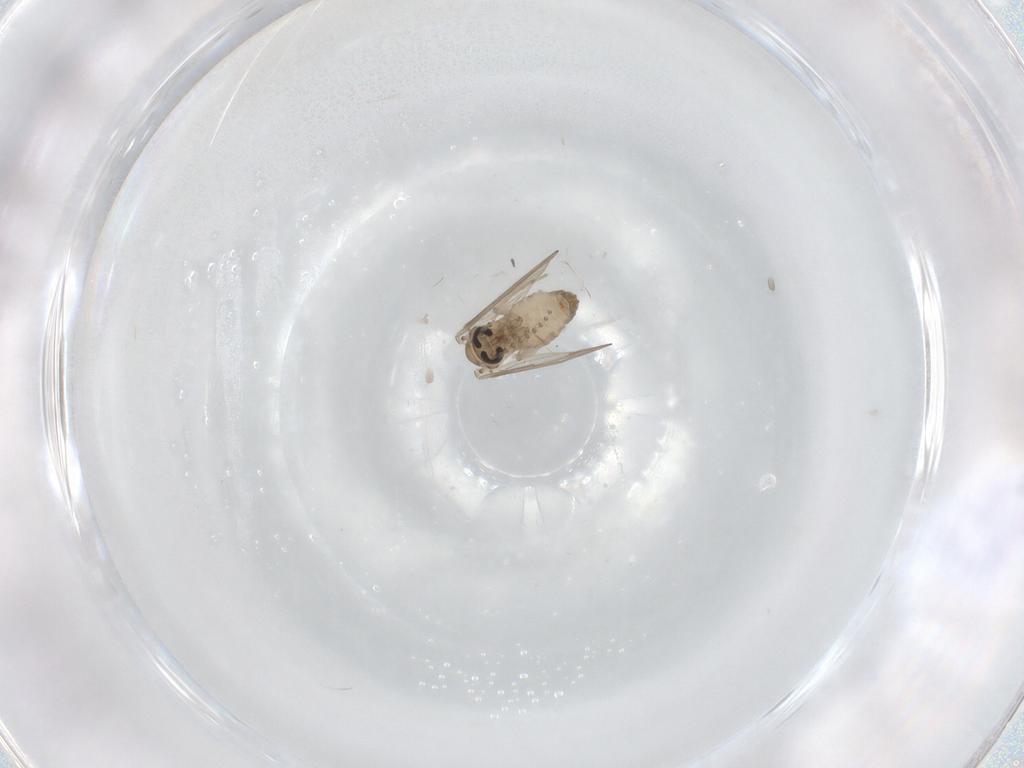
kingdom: Animalia
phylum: Arthropoda
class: Insecta
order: Diptera
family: Psychodidae
